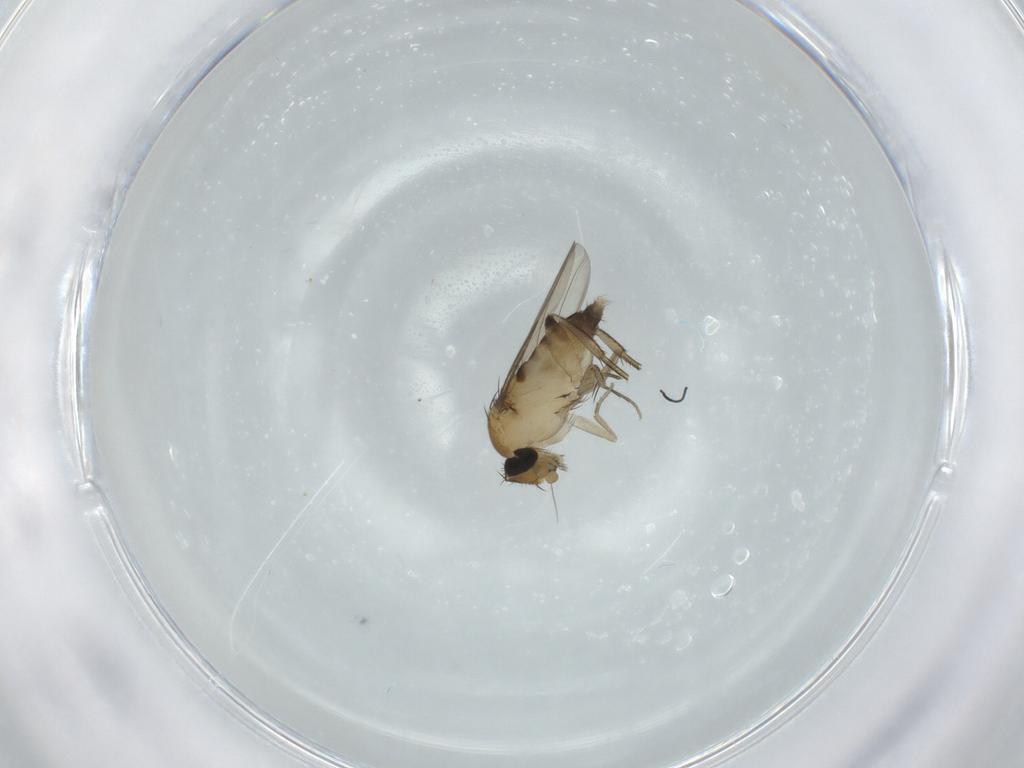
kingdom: Animalia
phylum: Arthropoda
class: Insecta
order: Diptera
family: Phoridae
